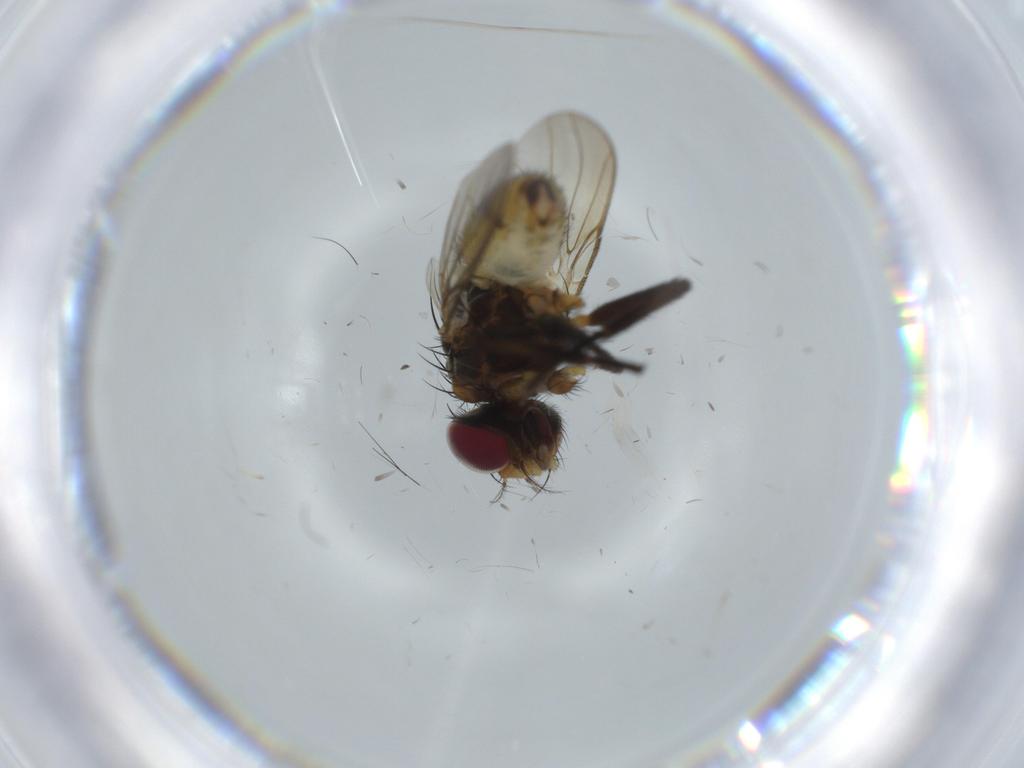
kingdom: Animalia
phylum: Arthropoda
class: Insecta
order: Diptera
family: Anthomyiidae
